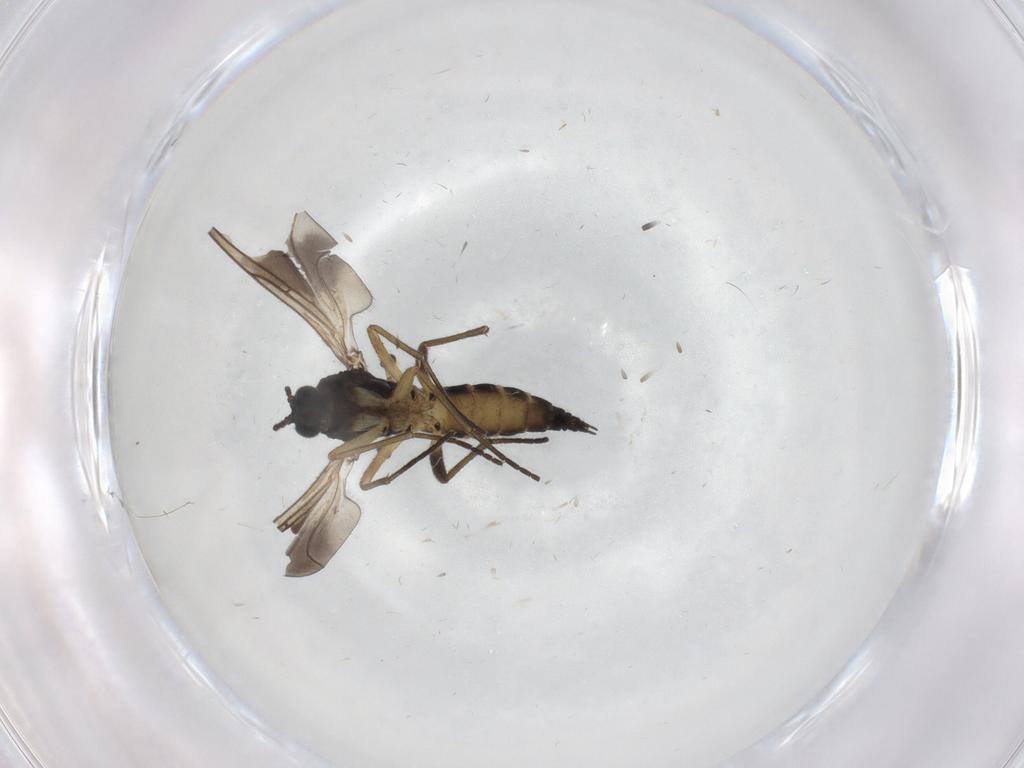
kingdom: Animalia
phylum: Arthropoda
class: Insecta
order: Diptera
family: Sciaridae
